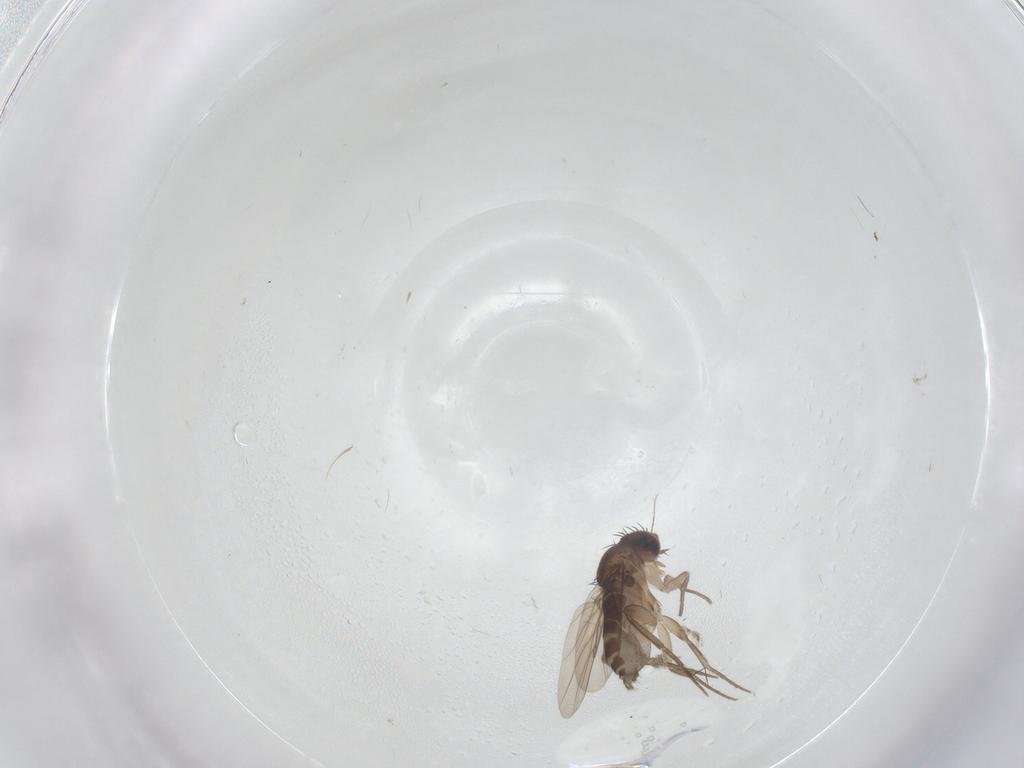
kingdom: Animalia
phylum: Arthropoda
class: Insecta
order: Diptera
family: Phoridae
